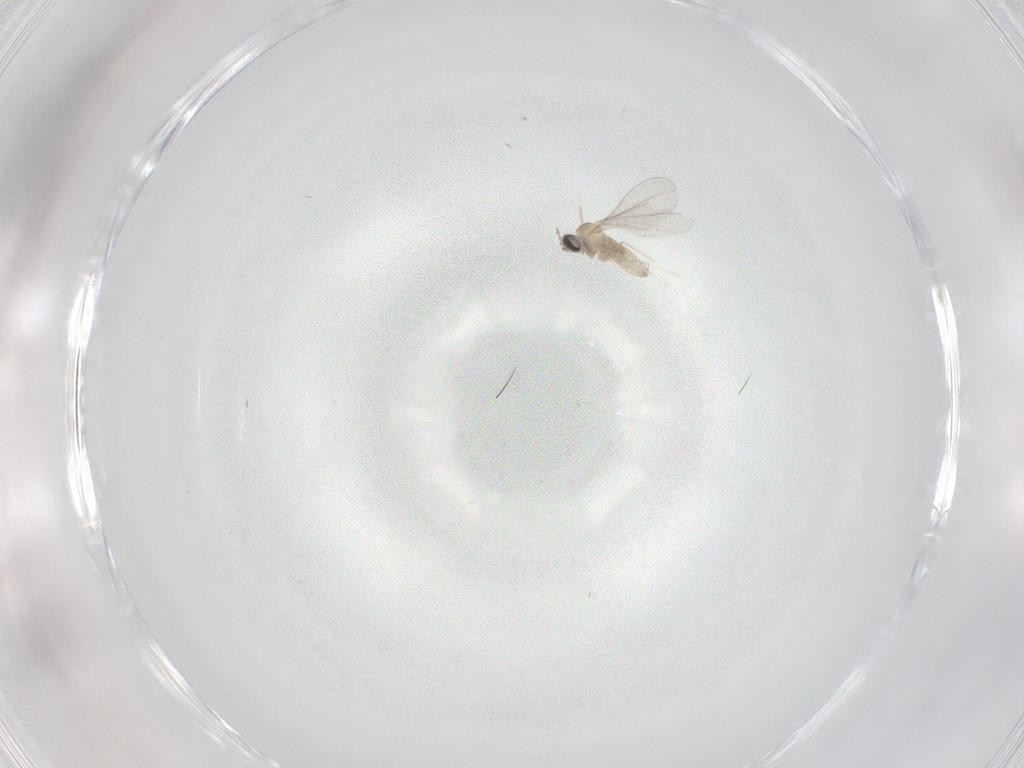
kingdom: Animalia
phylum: Arthropoda
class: Insecta
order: Diptera
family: Cecidomyiidae
